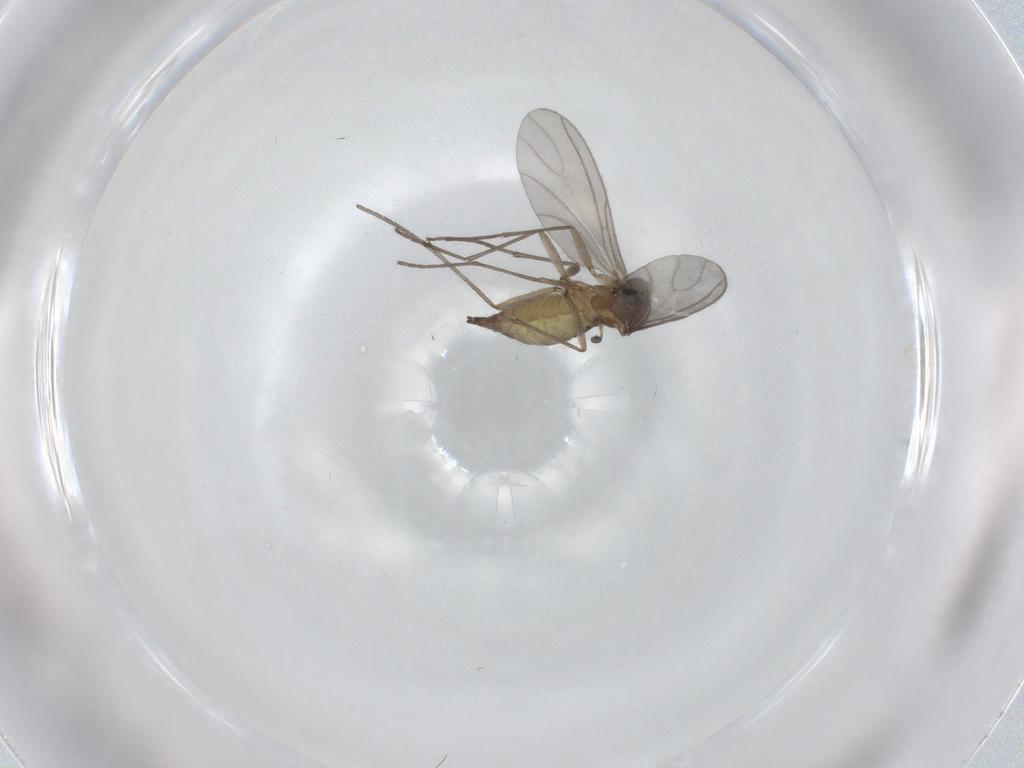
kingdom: Animalia
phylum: Arthropoda
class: Insecta
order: Diptera
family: Sciaridae
